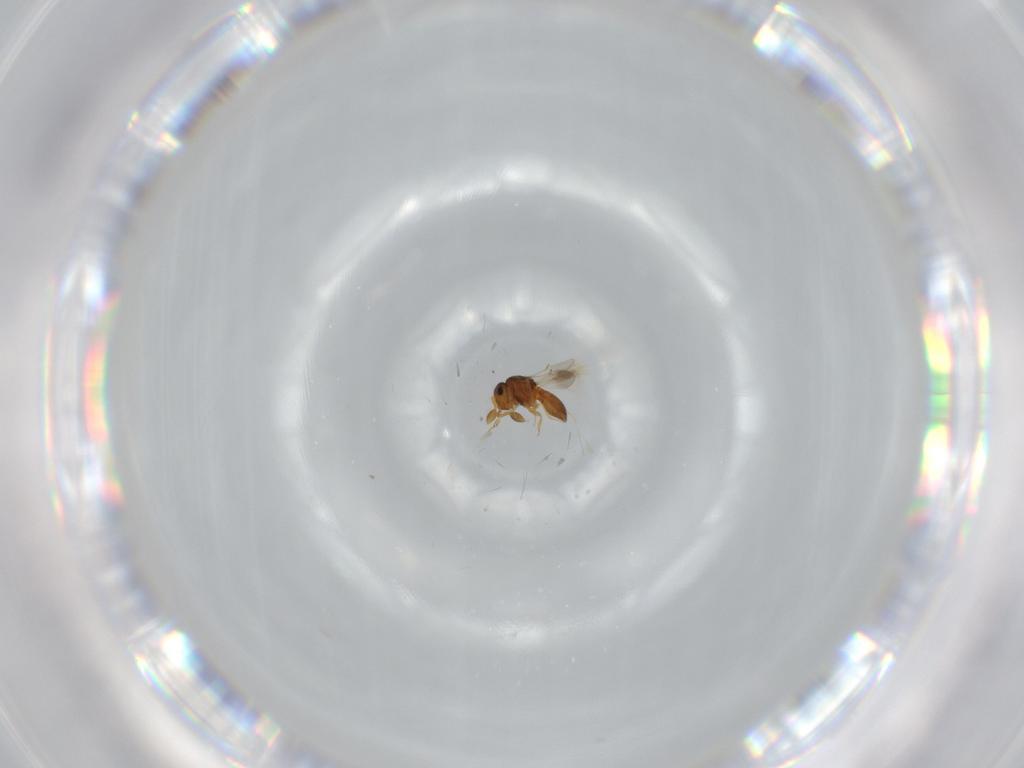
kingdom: Animalia
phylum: Arthropoda
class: Insecta
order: Hymenoptera
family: Scelionidae
